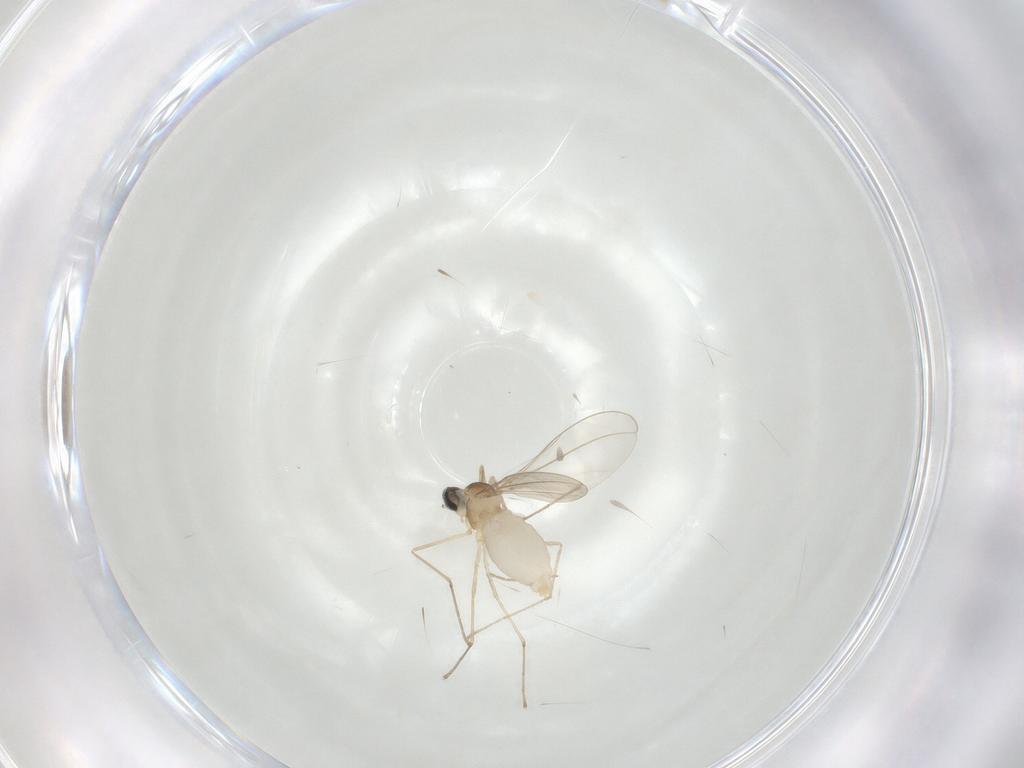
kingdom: Animalia
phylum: Arthropoda
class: Insecta
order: Diptera
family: Cecidomyiidae
